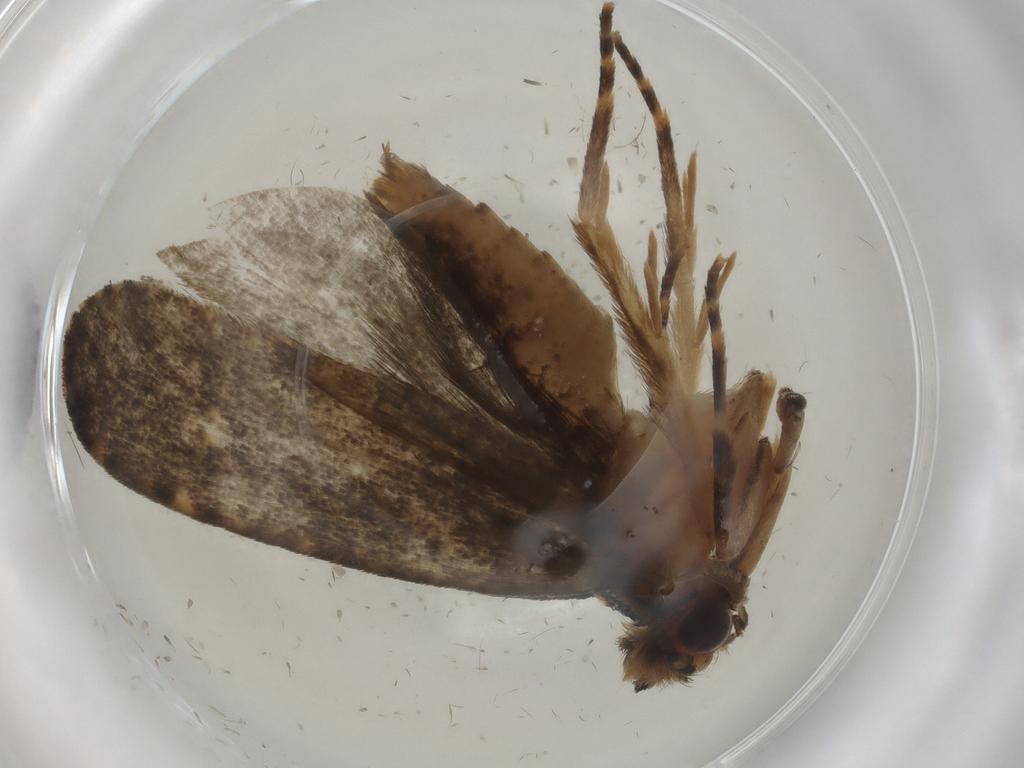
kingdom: Animalia
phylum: Arthropoda
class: Insecta
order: Lepidoptera
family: Tineidae
